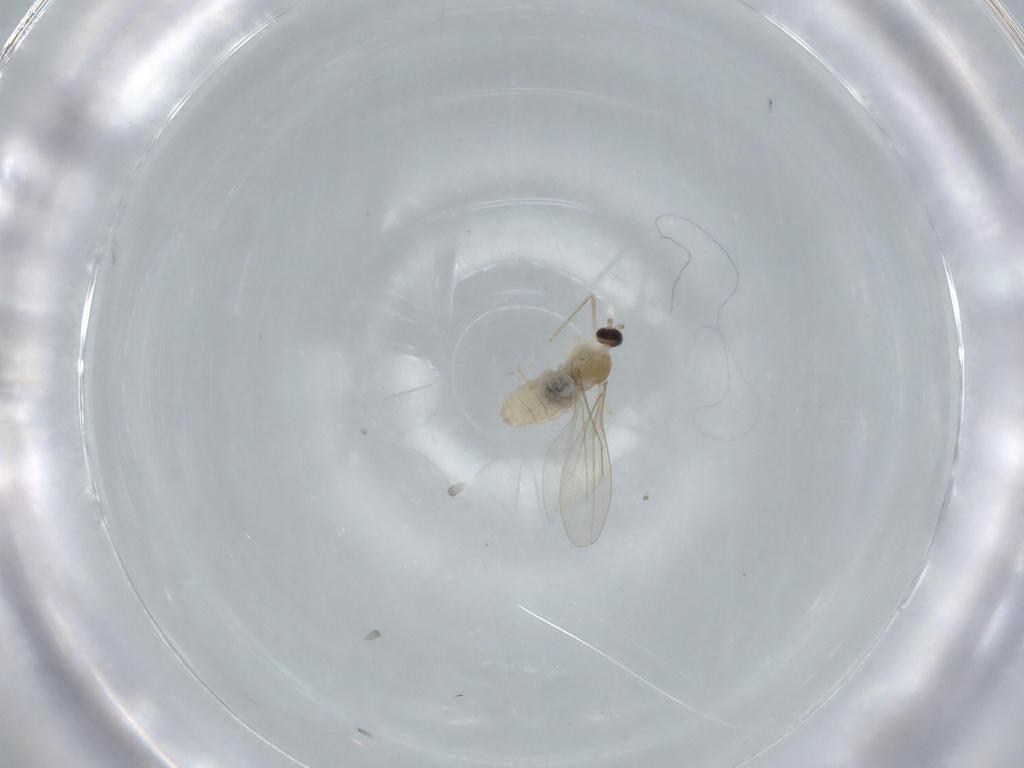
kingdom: Animalia
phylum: Arthropoda
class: Insecta
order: Diptera
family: Cecidomyiidae
